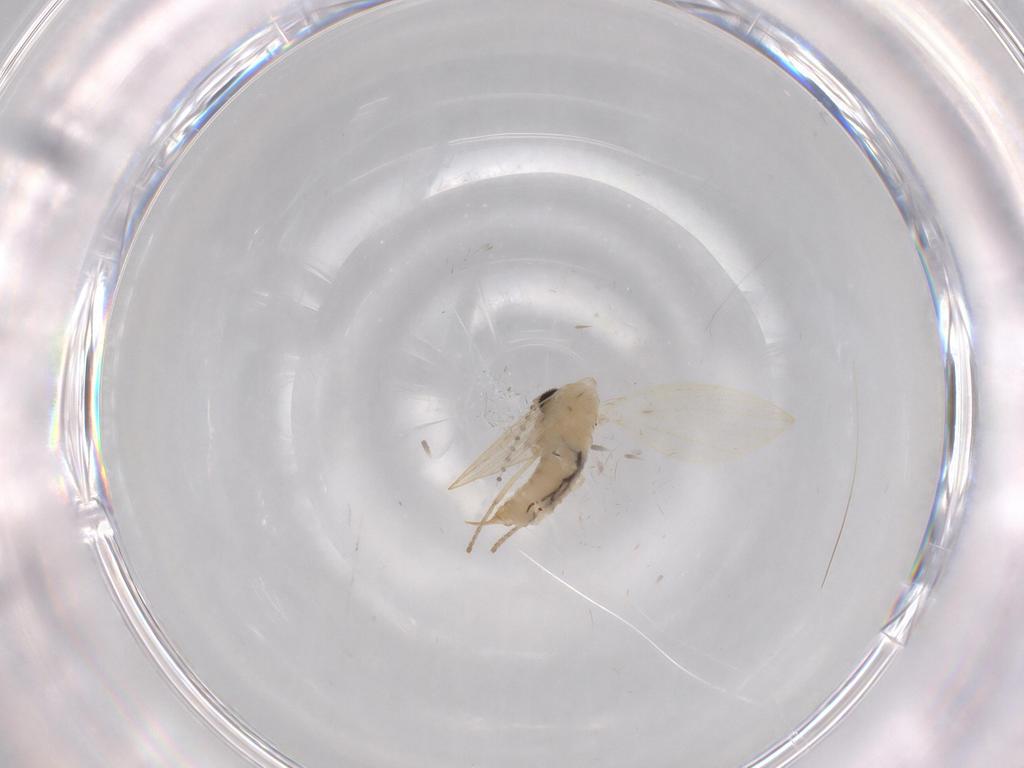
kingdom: Animalia
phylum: Arthropoda
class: Insecta
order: Diptera
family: Psychodidae
